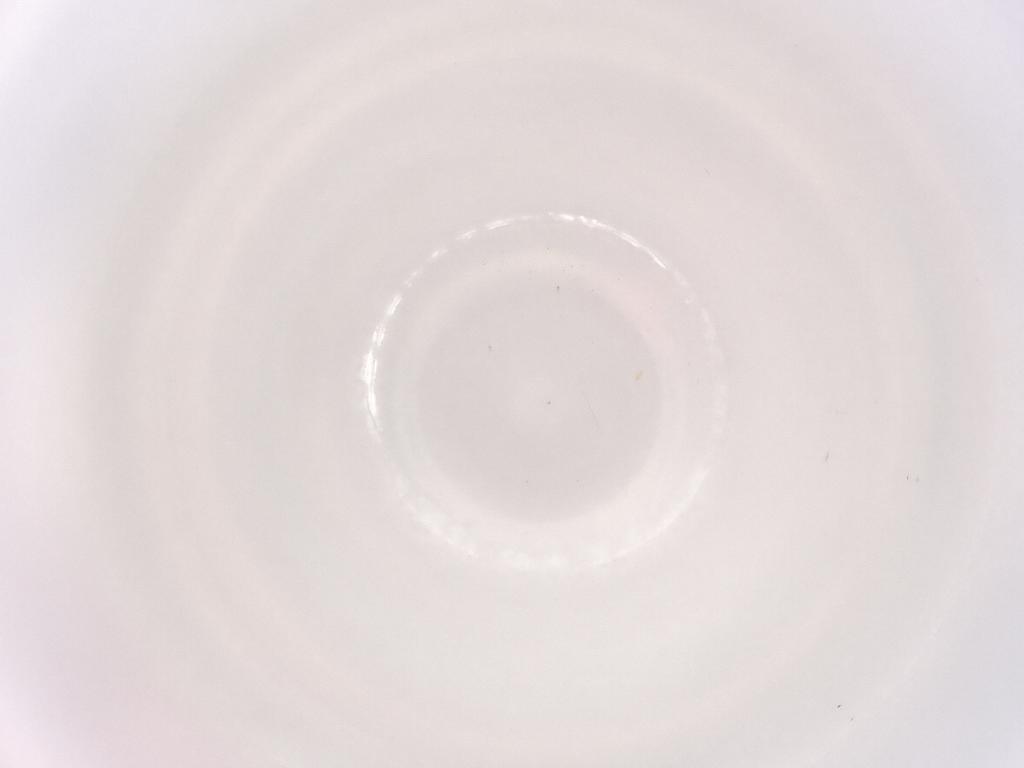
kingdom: Animalia
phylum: Arthropoda
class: Insecta
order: Diptera
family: Sciaridae
